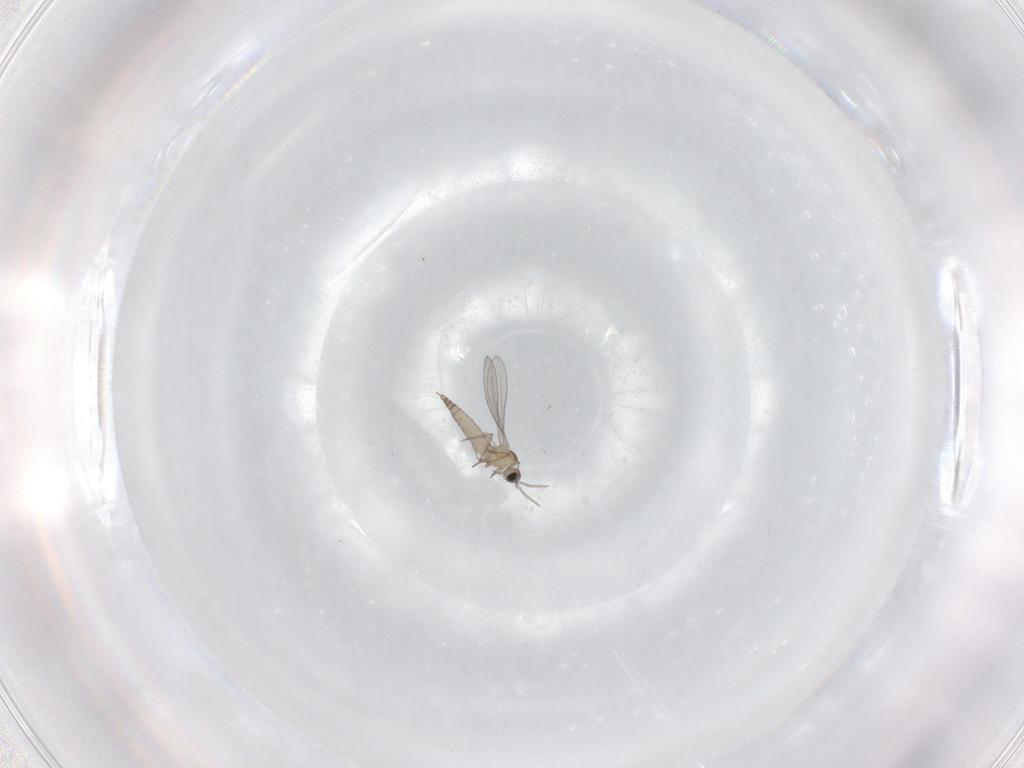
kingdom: Animalia
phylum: Arthropoda
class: Insecta
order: Diptera
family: Cecidomyiidae
